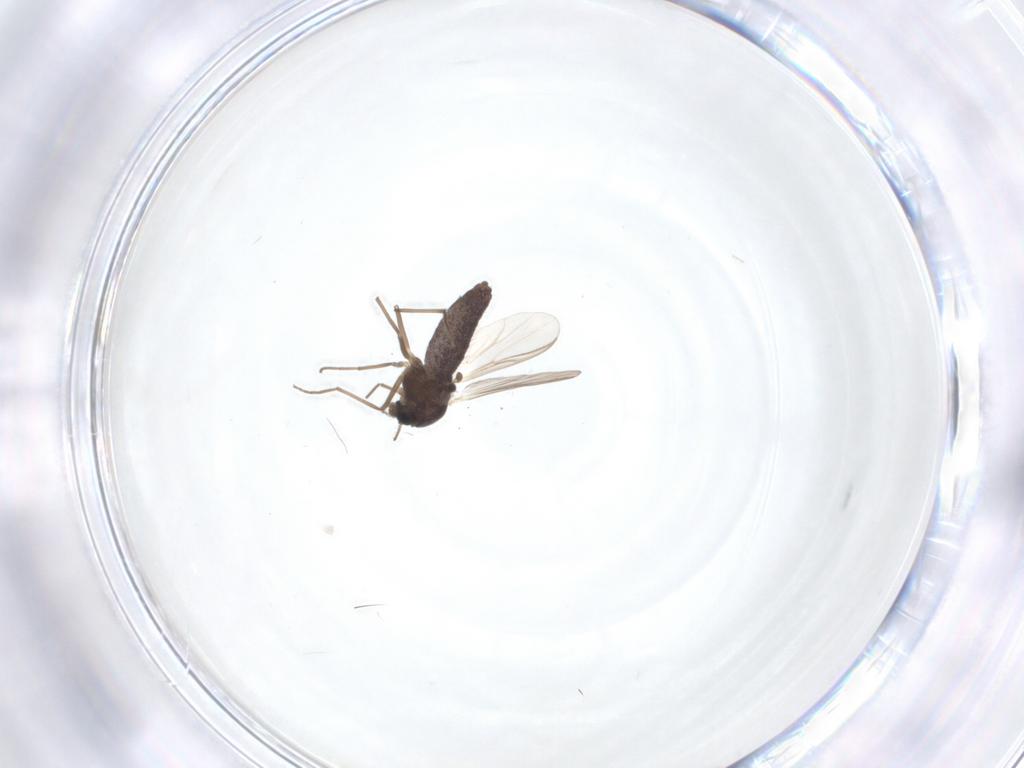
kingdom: Animalia
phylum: Arthropoda
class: Insecta
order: Diptera
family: Chironomidae
